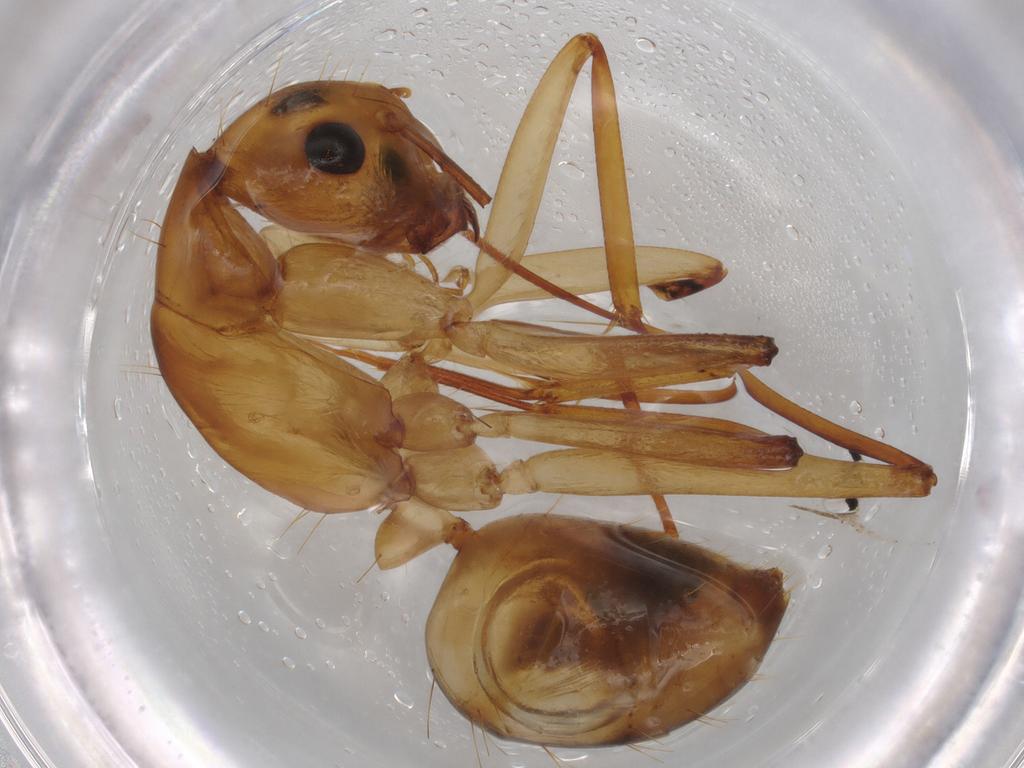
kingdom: Animalia
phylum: Arthropoda
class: Insecta
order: Hymenoptera
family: Formicidae
